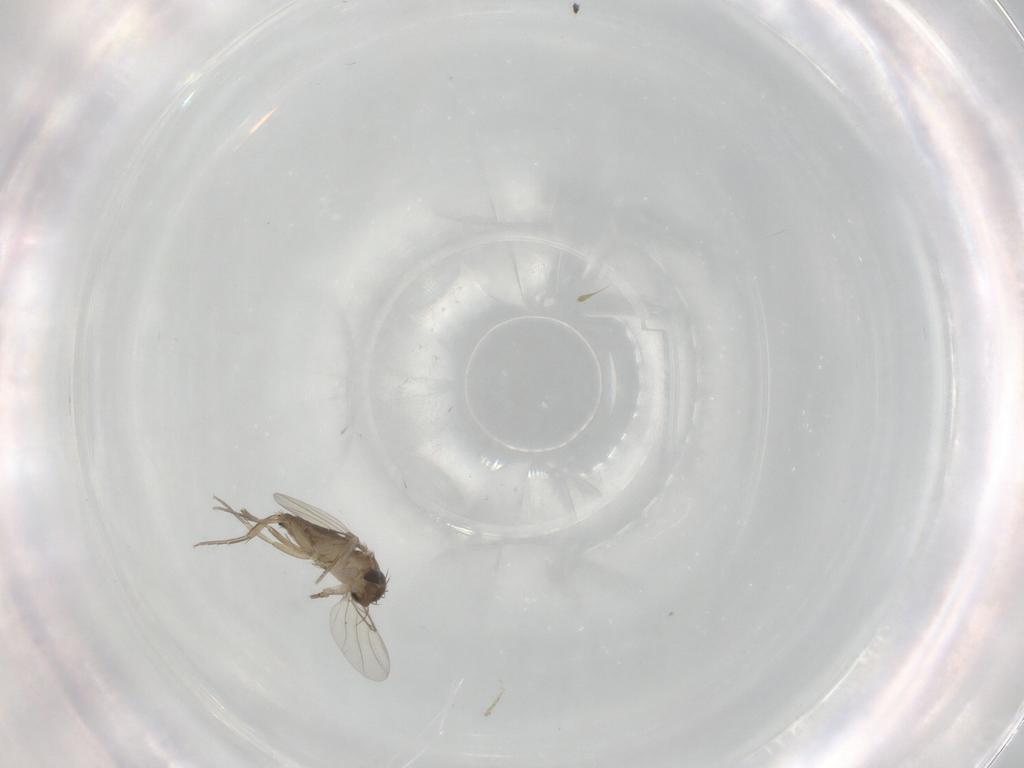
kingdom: Animalia
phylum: Arthropoda
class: Insecta
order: Diptera
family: Phoridae
